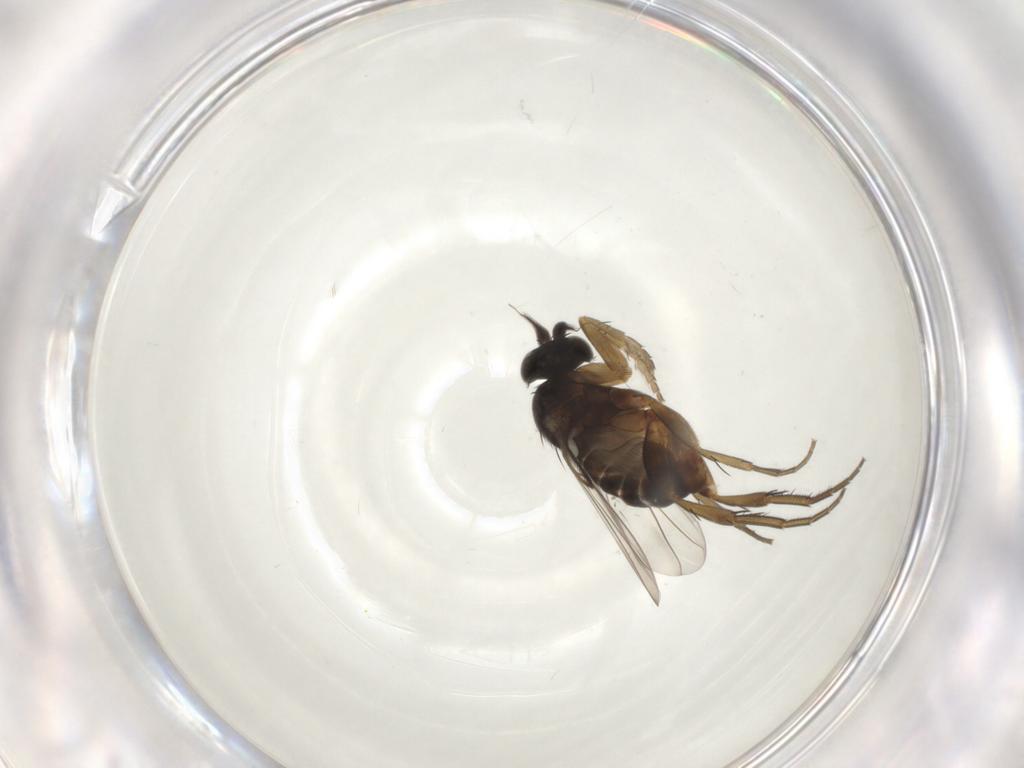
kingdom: Animalia
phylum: Arthropoda
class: Insecta
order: Diptera
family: Phoridae
